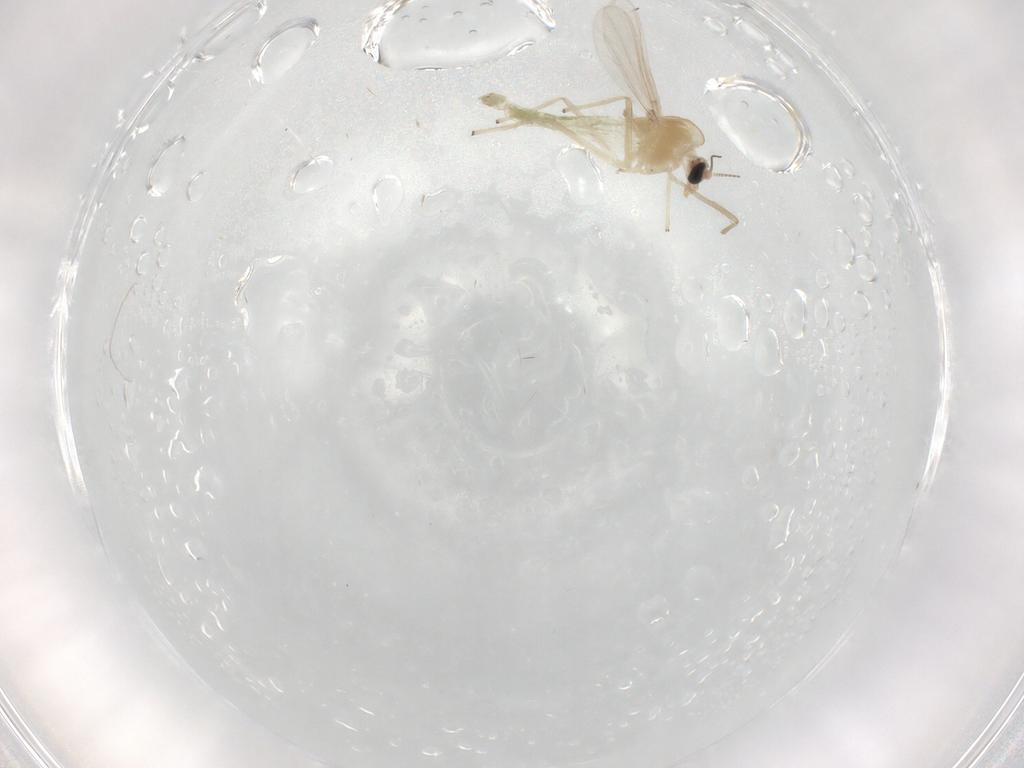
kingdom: Animalia
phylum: Arthropoda
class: Insecta
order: Diptera
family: Chironomidae
